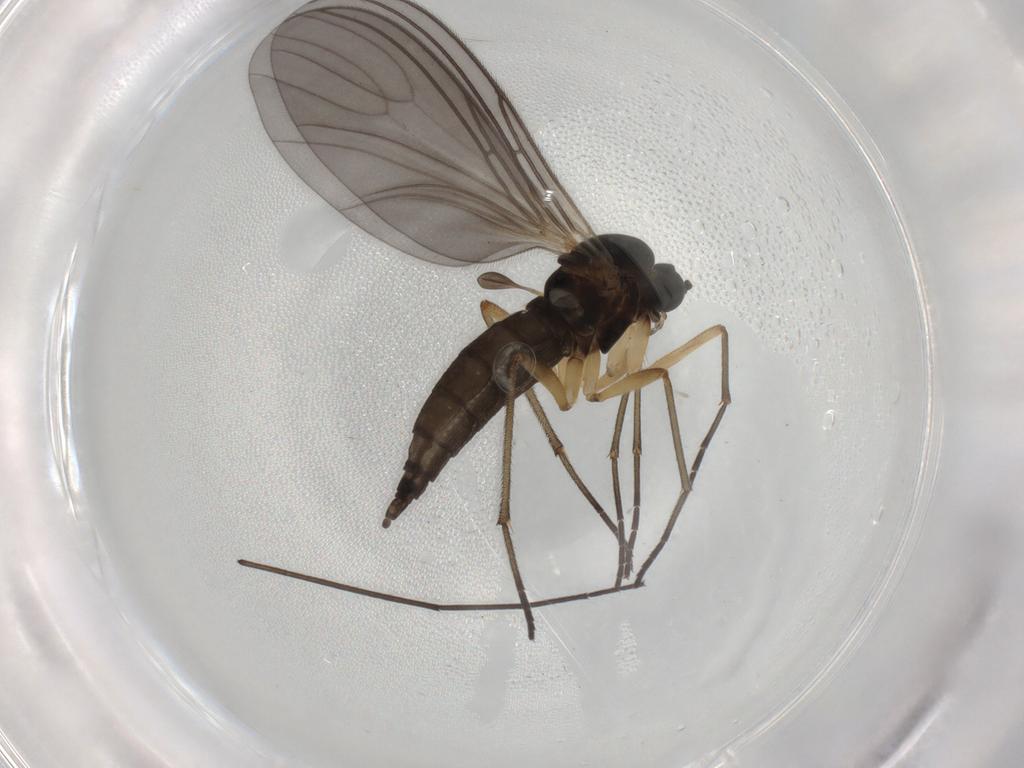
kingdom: Animalia
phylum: Arthropoda
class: Insecta
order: Diptera
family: Sciaridae
